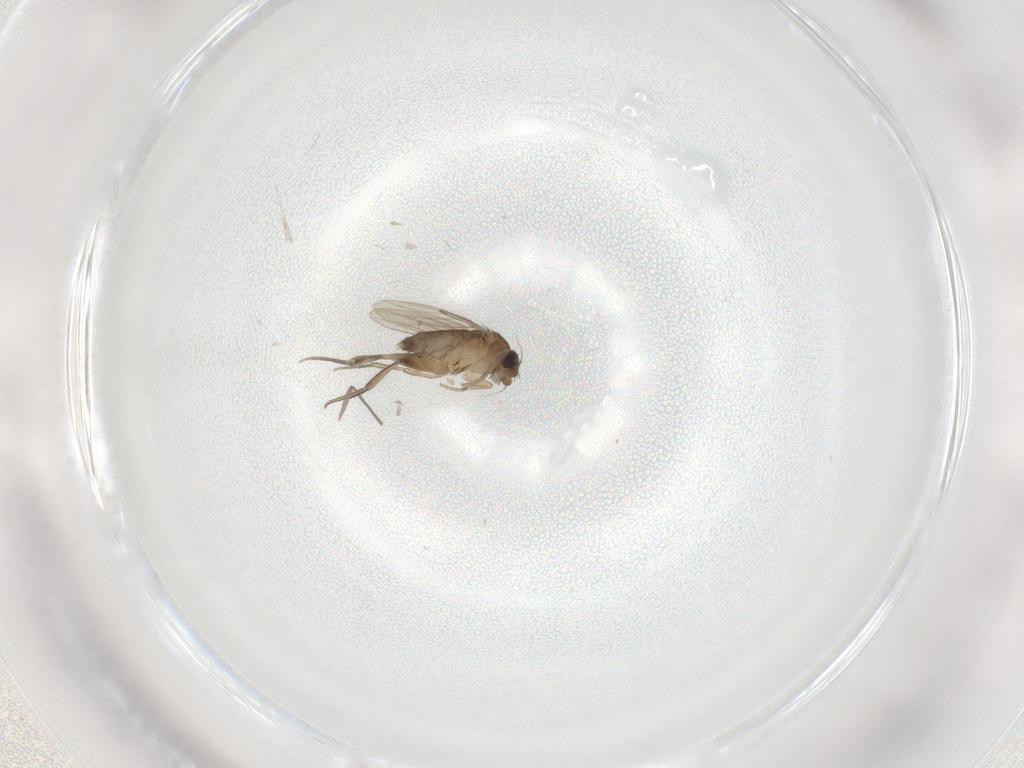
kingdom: Animalia
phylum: Arthropoda
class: Insecta
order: Diptera
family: Phoridae
